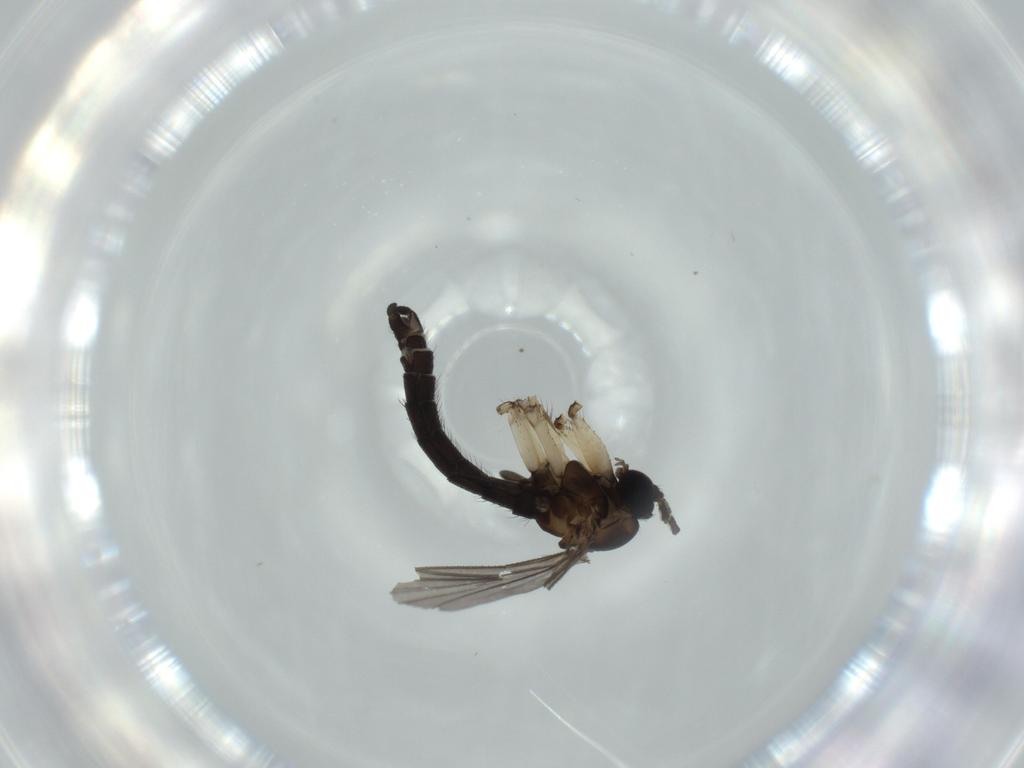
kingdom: Animalia
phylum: Arthropoda
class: Insecta
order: Diptera
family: Sciaridae
